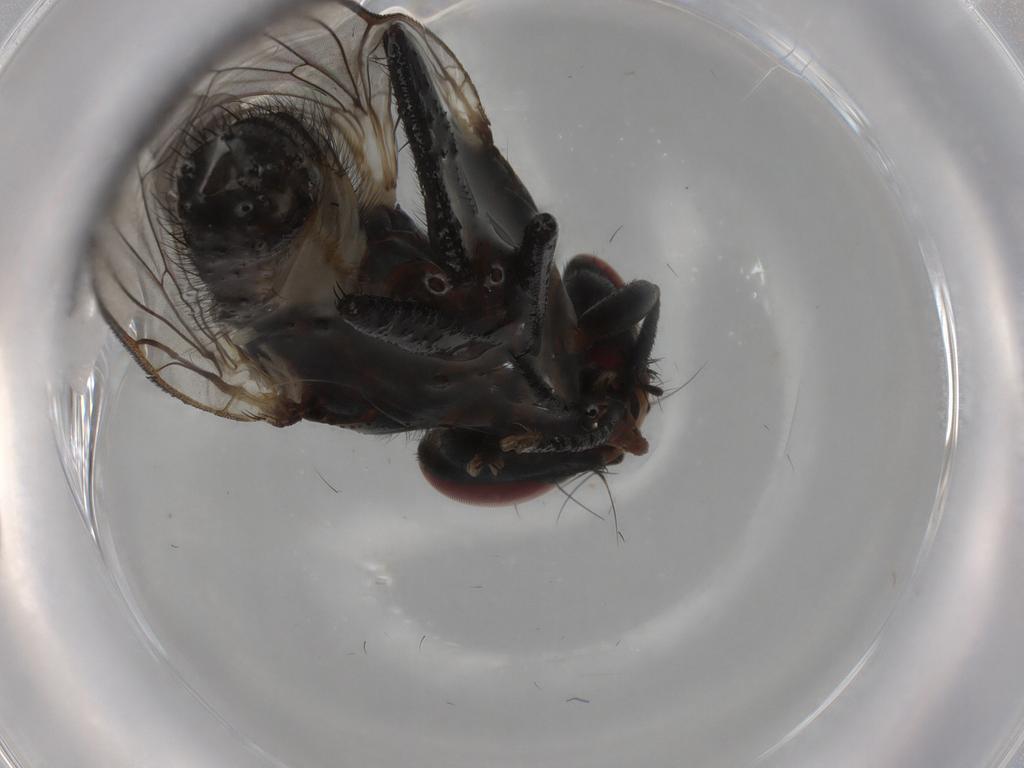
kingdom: Animalia
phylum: Arthropoda
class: Insecta
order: Diptera
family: Anthomyiidae
